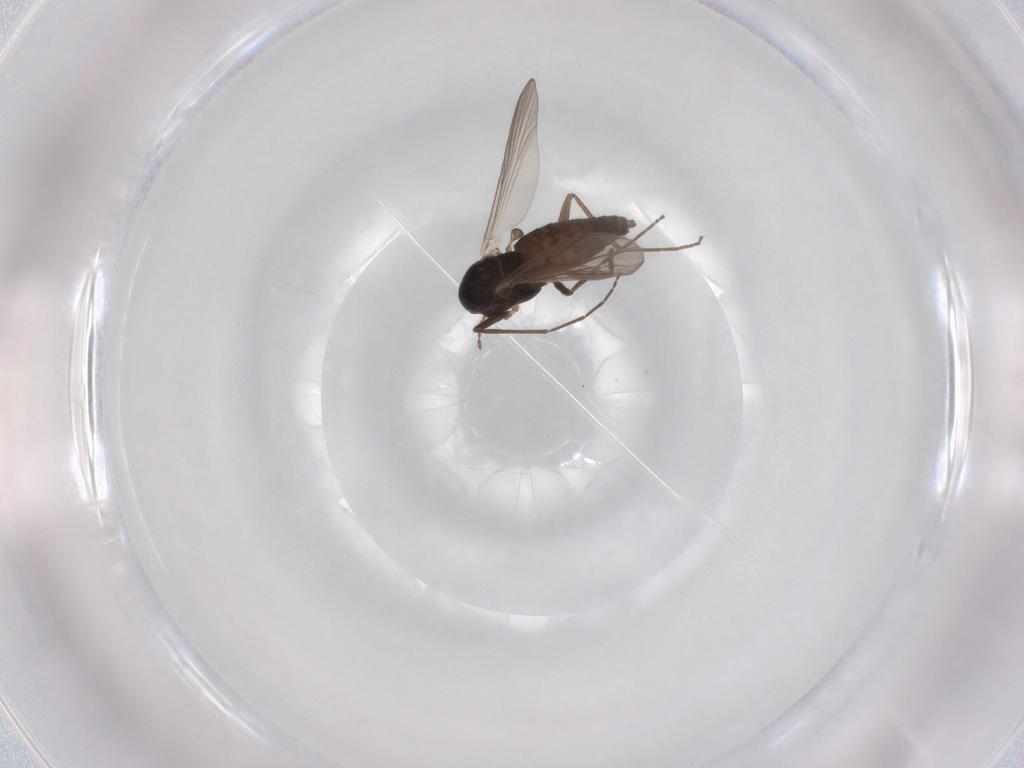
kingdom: Animalia
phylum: Arthropoda
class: Insecta
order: Diptera
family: Chironomidae
